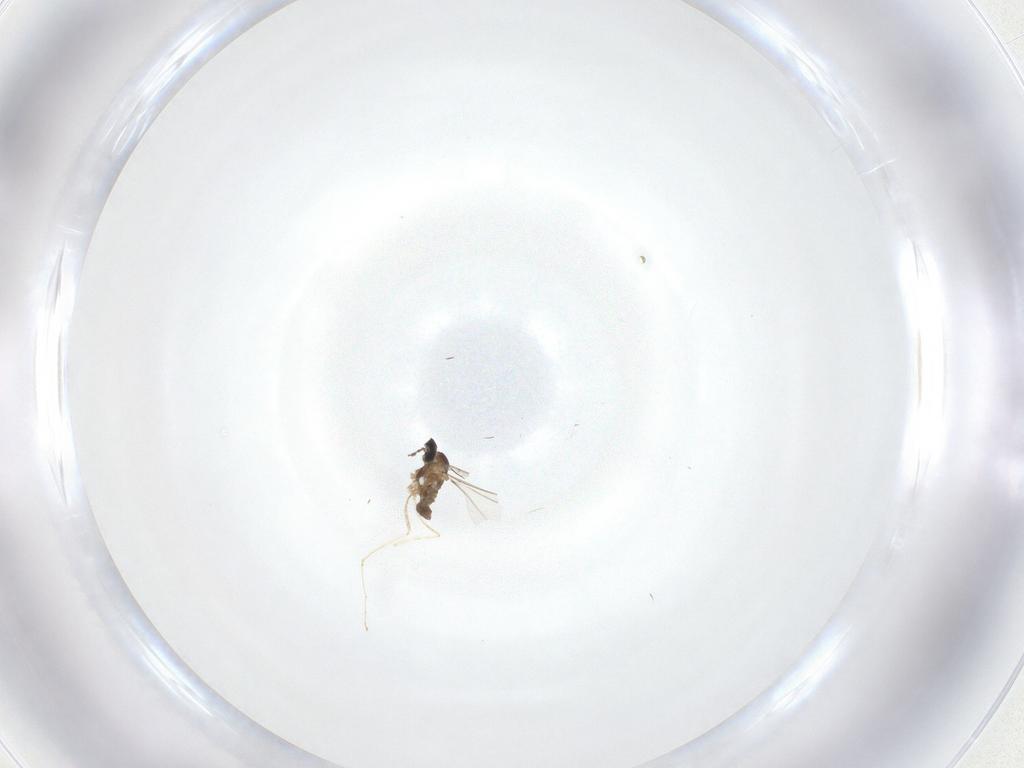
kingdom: Animalia
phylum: Arthropoda
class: Insecta
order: Diptera
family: Cecidomyiidae
